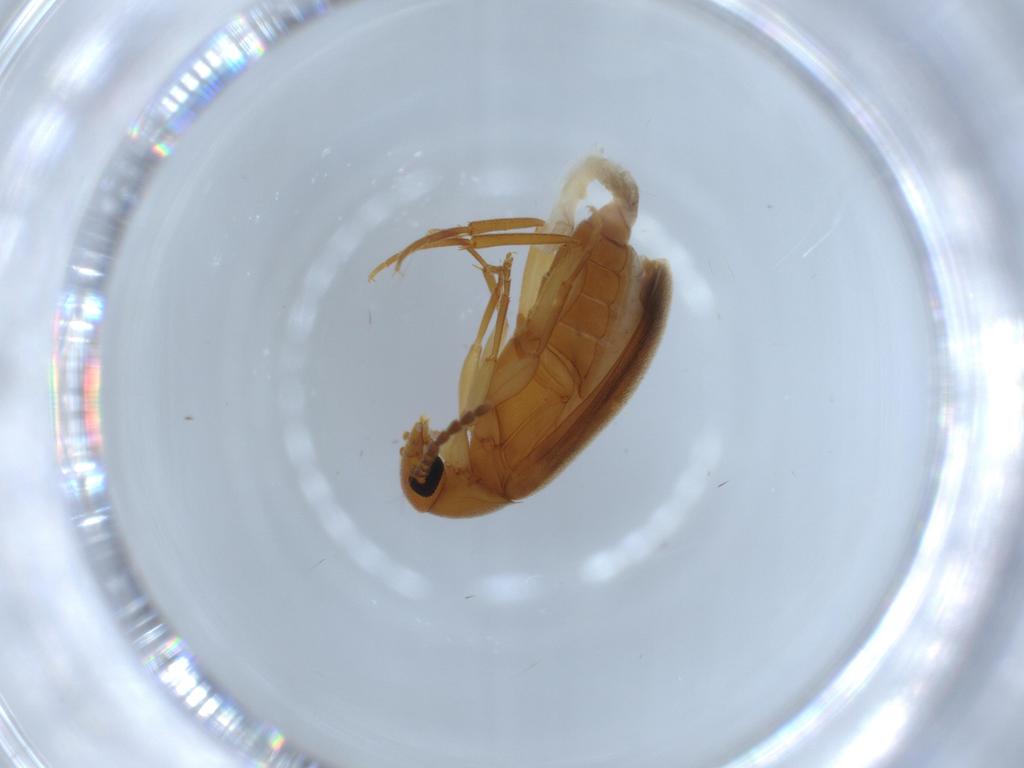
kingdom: Animalia
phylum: Arthropoda
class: Insecta
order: Coleoptera
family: Scraptiidae
